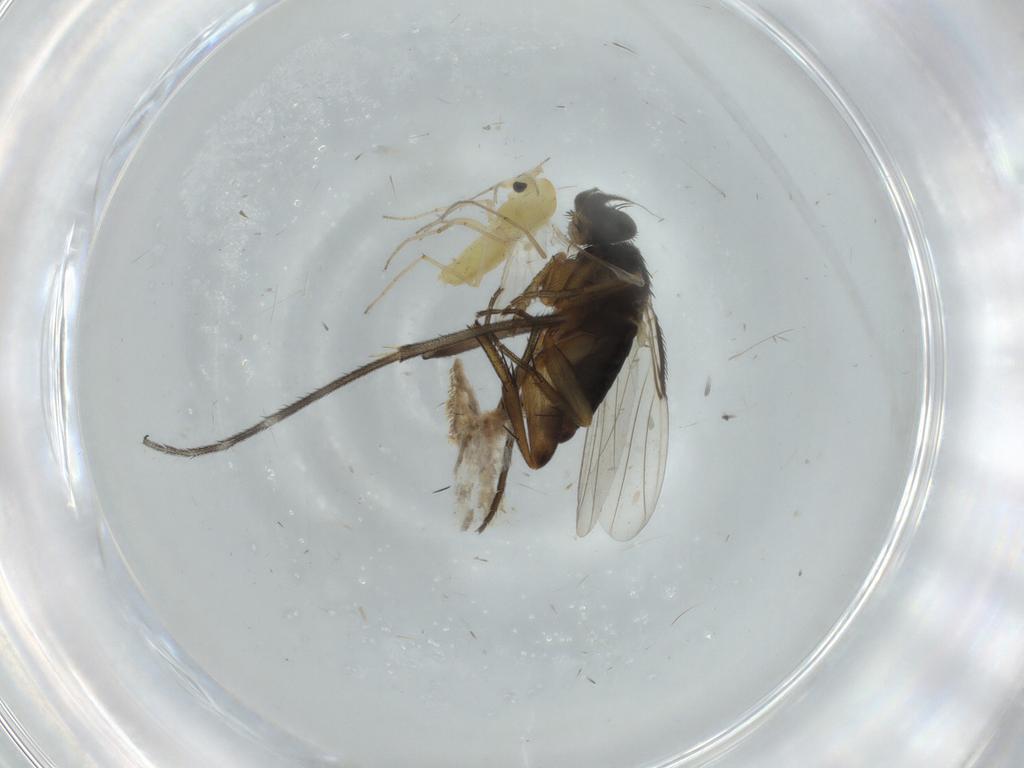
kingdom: Animalia
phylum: Arthropoda
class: Insecta
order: Diptera
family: Phoridae
